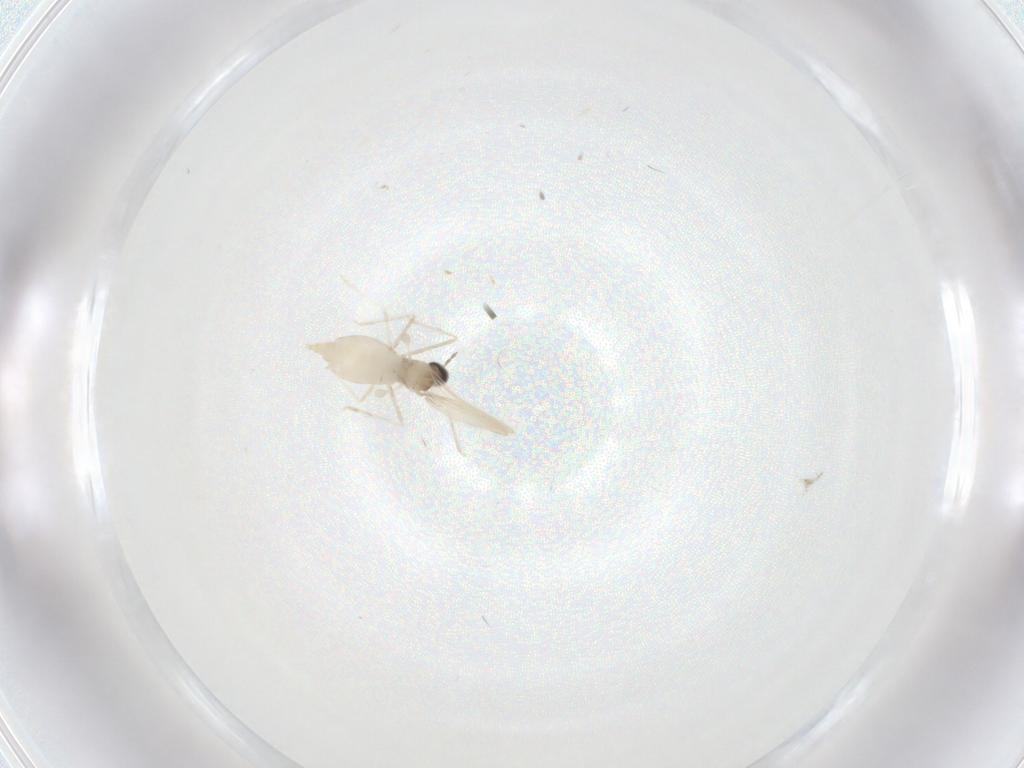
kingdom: Animalia
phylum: Arthropoda
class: Insecta
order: Diptera
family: Cecidomyiidae
